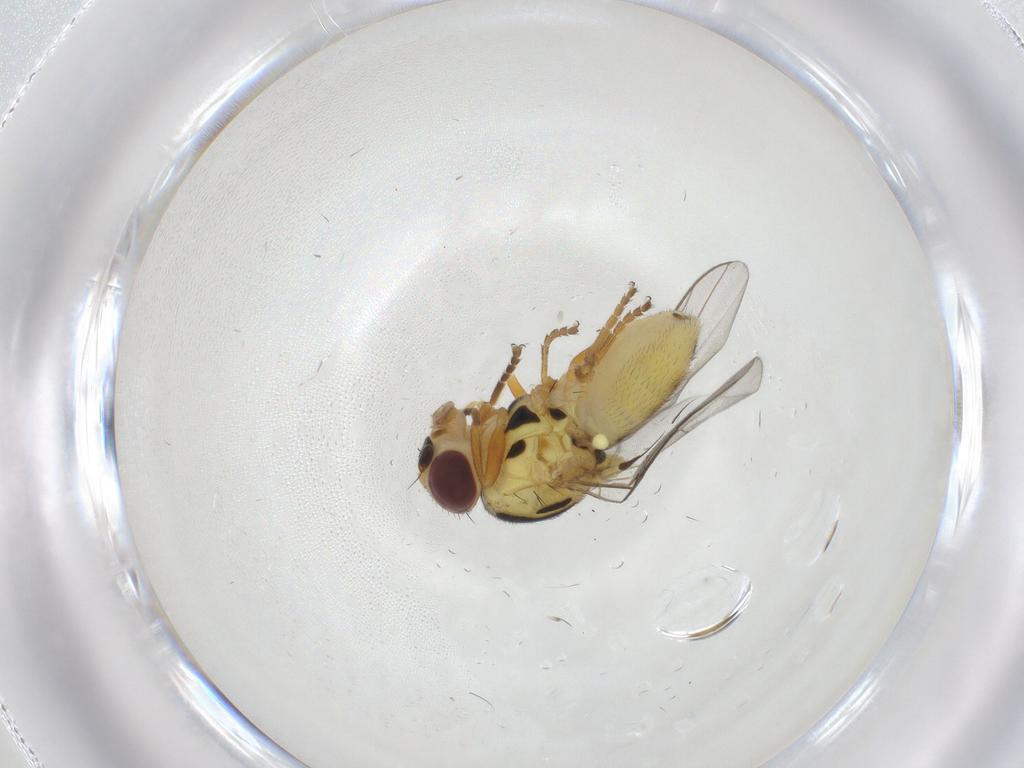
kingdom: Animalia
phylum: Arthropoda
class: Insecta
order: Diptera
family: Chloropidae
